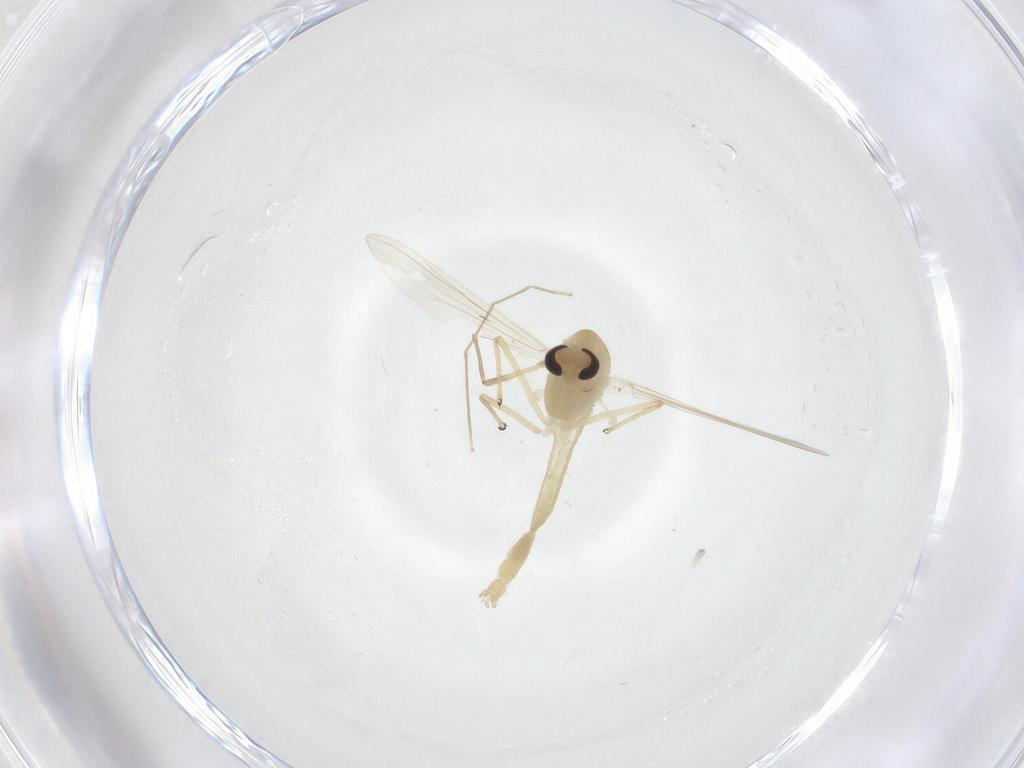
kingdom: Animalia
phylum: Arthropoda
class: Insecta
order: Diptera
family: Chironomidae
